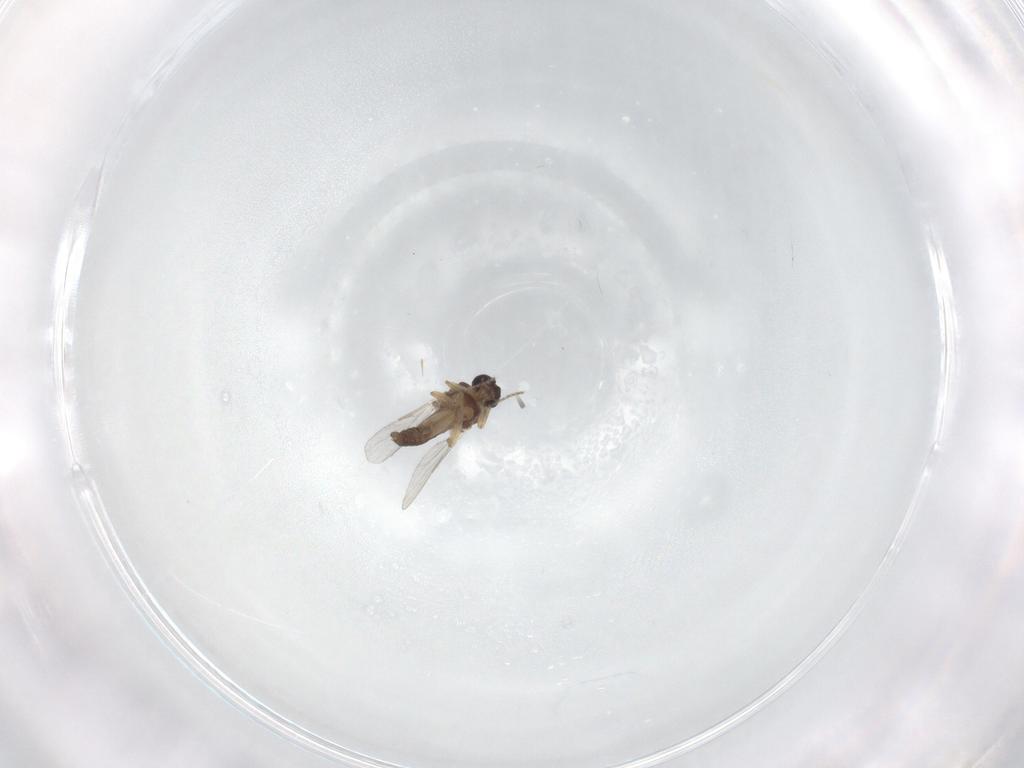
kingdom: Animalia
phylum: Arthropoda
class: Insecta
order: Diptera
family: Ceratopogonidae
